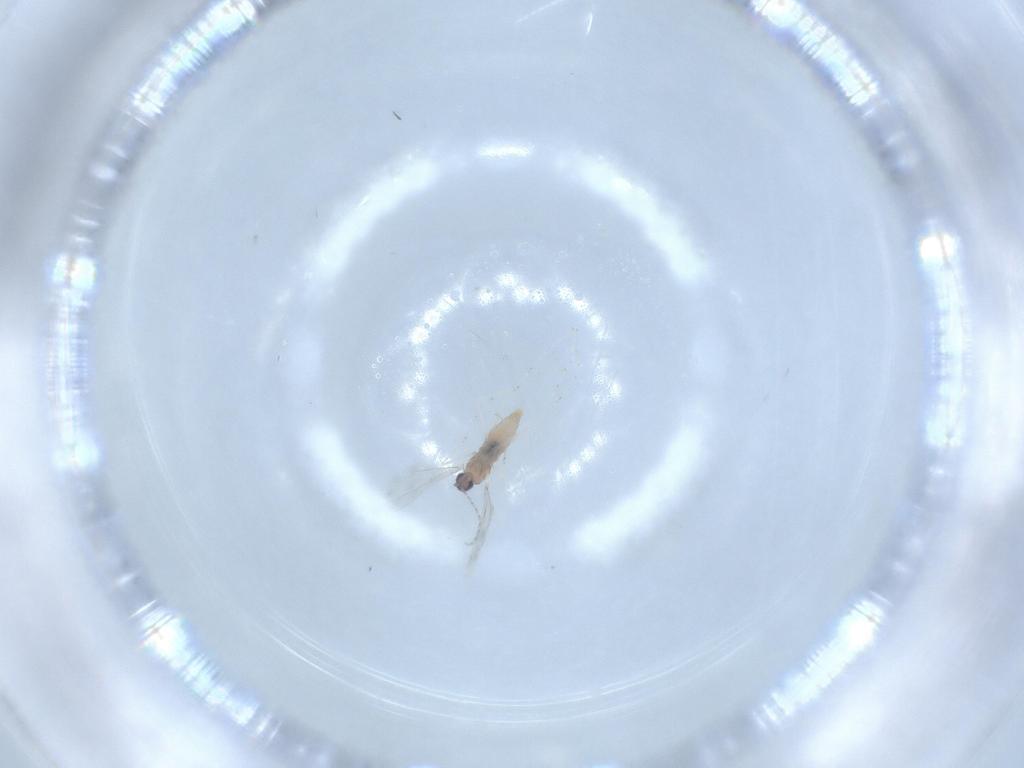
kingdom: Animalia
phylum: Arthropoda
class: Insecta
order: Diptera
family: Cecidomyiidae
